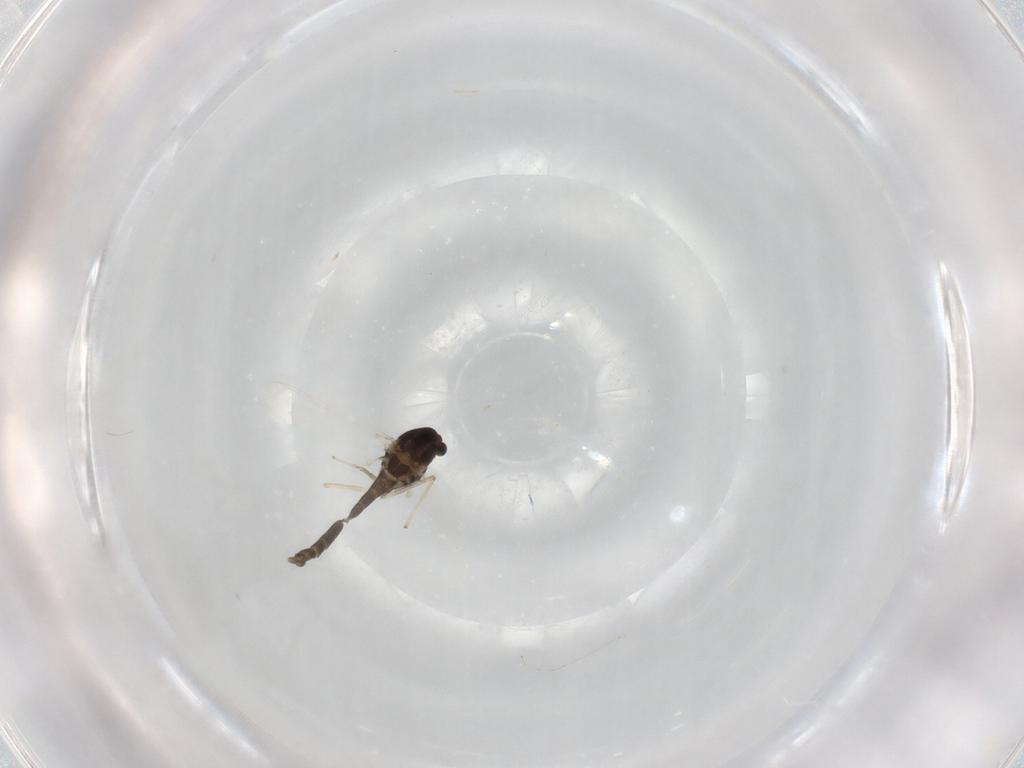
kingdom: Animalia
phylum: Arthropoda
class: Insecta
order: Diptera
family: Chironomidae
